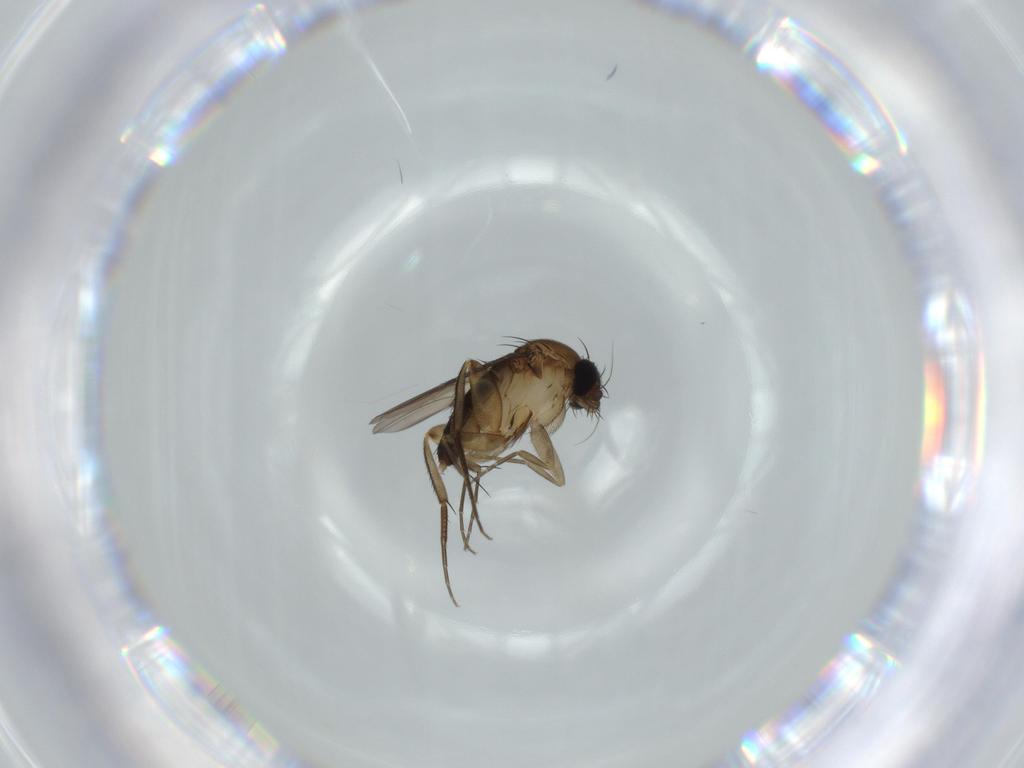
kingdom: Animalia
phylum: Arthropoda
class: Insecta
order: Diptera
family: Phoridae
